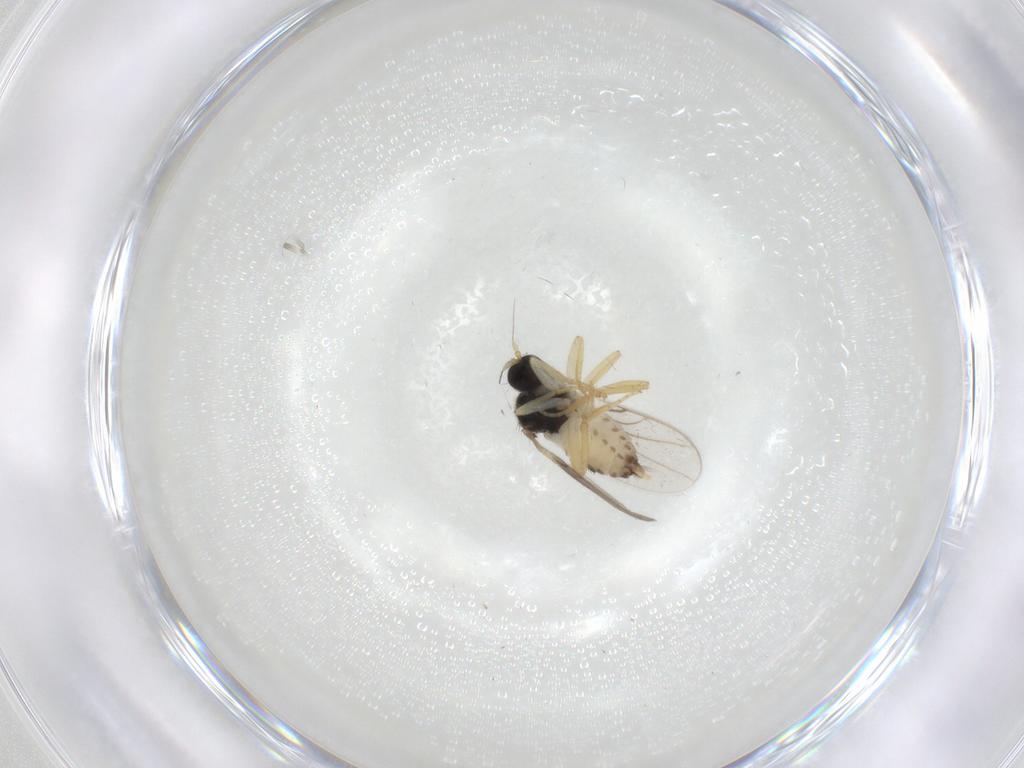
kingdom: Animalia
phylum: Arthropoda
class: Insecta
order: Diptera
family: Hybotidae
